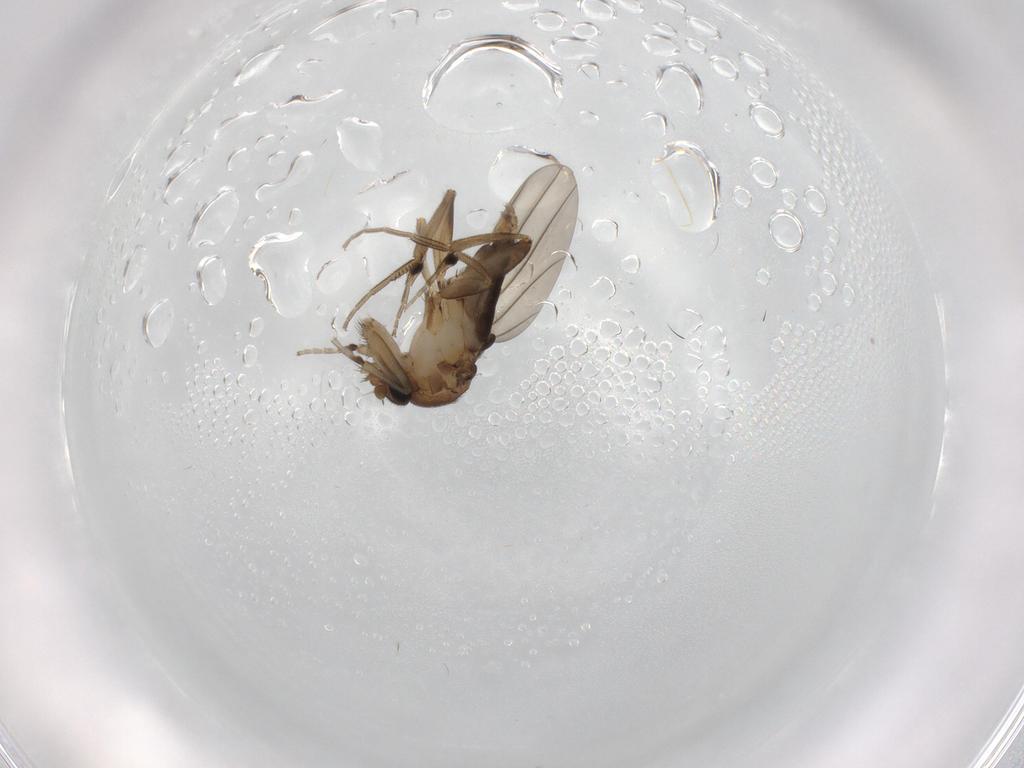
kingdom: Animalia
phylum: Arthropoda
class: Insecta
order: Diptera
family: Phoridae
